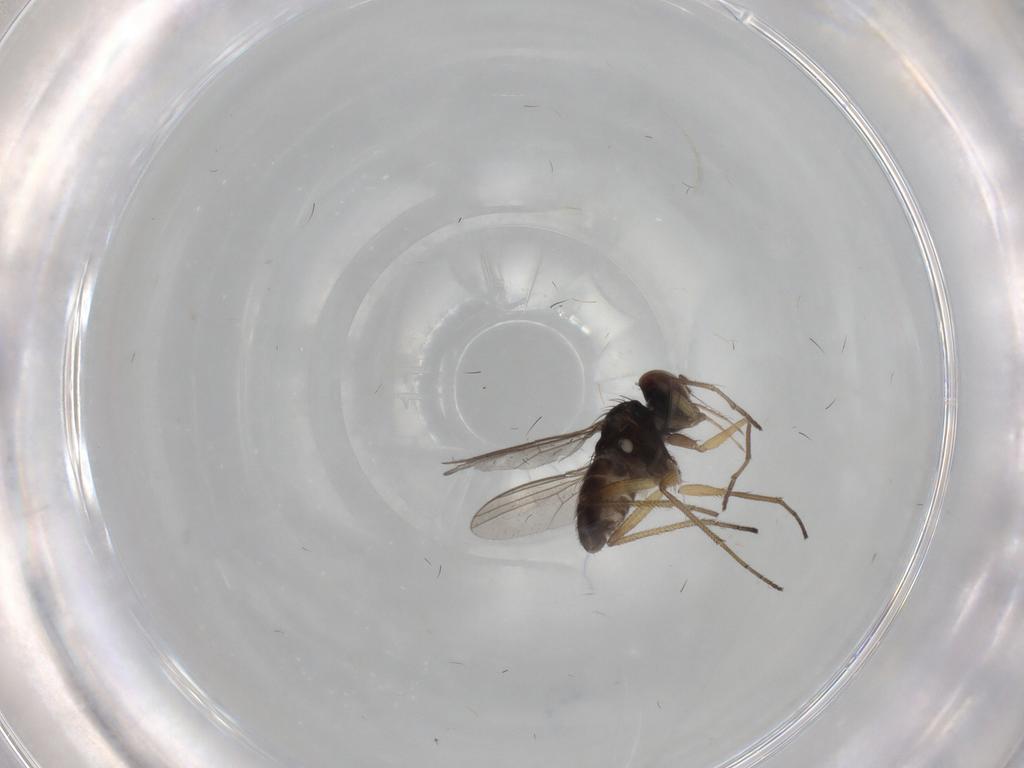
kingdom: Animalia
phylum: Arthropoda
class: Insecta
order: Diptera
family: Dolichopodidae
